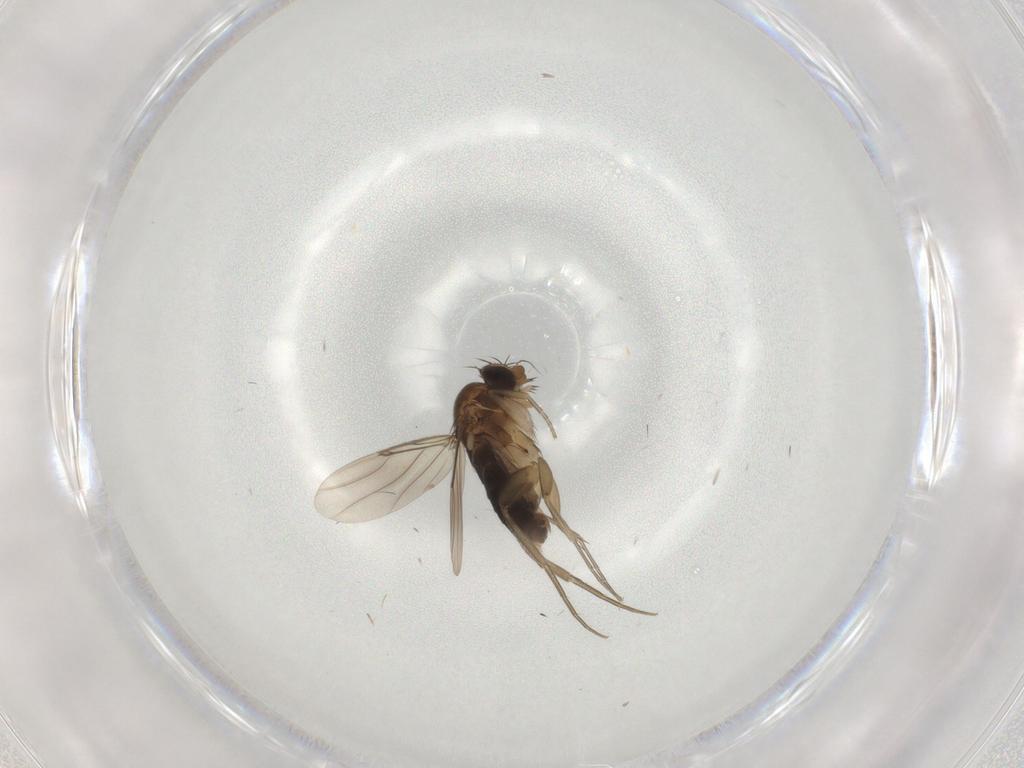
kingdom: Animalia
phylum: Arthropoda
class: Insecta
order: Diptera
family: Phoridae
